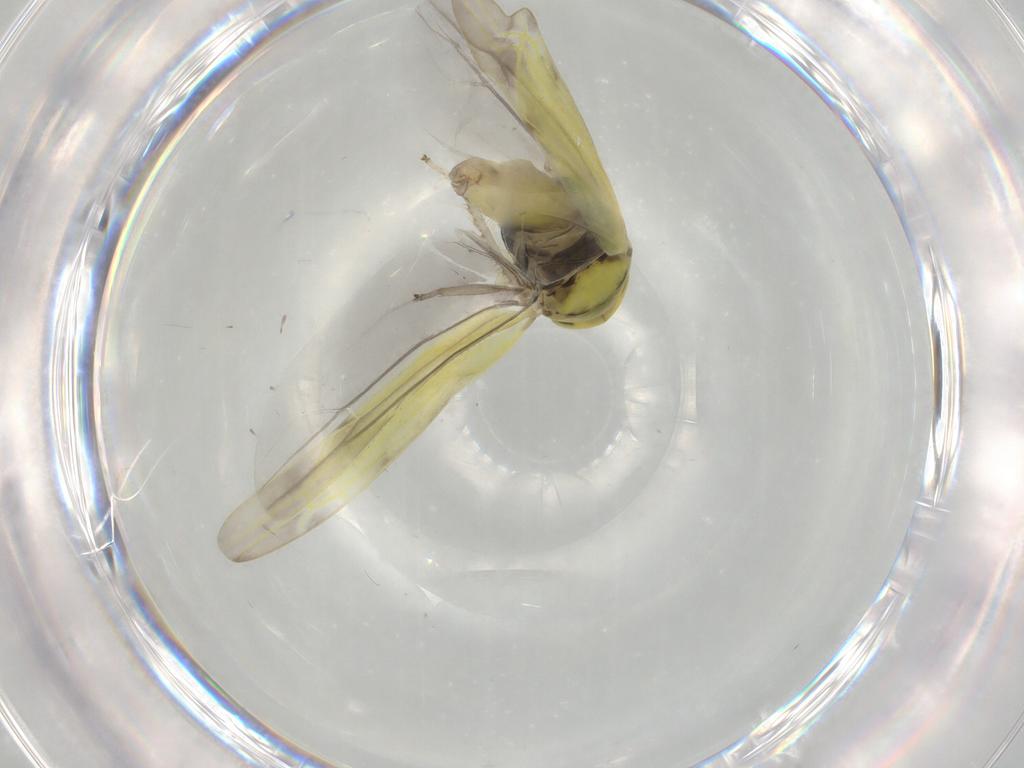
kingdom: Animalia
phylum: Arthropoda
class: Insecta
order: Hemiptera
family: Cicadellidae
